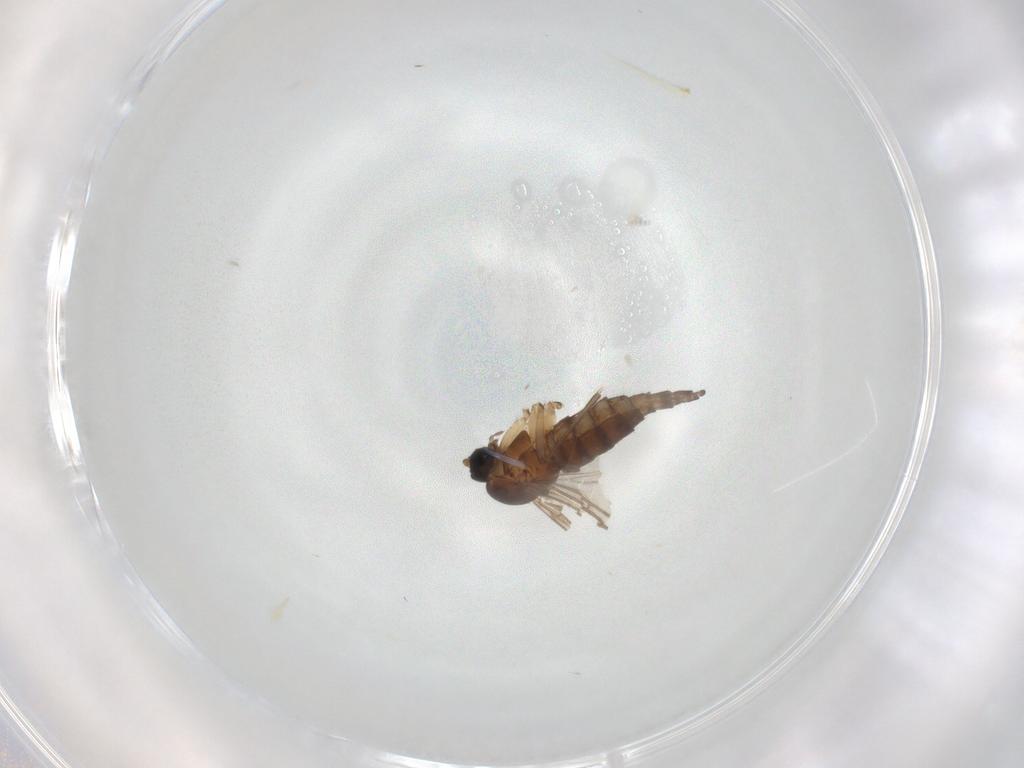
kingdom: Animalia
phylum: Arthropoda
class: Insecta
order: Diptera
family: Sciaridae
